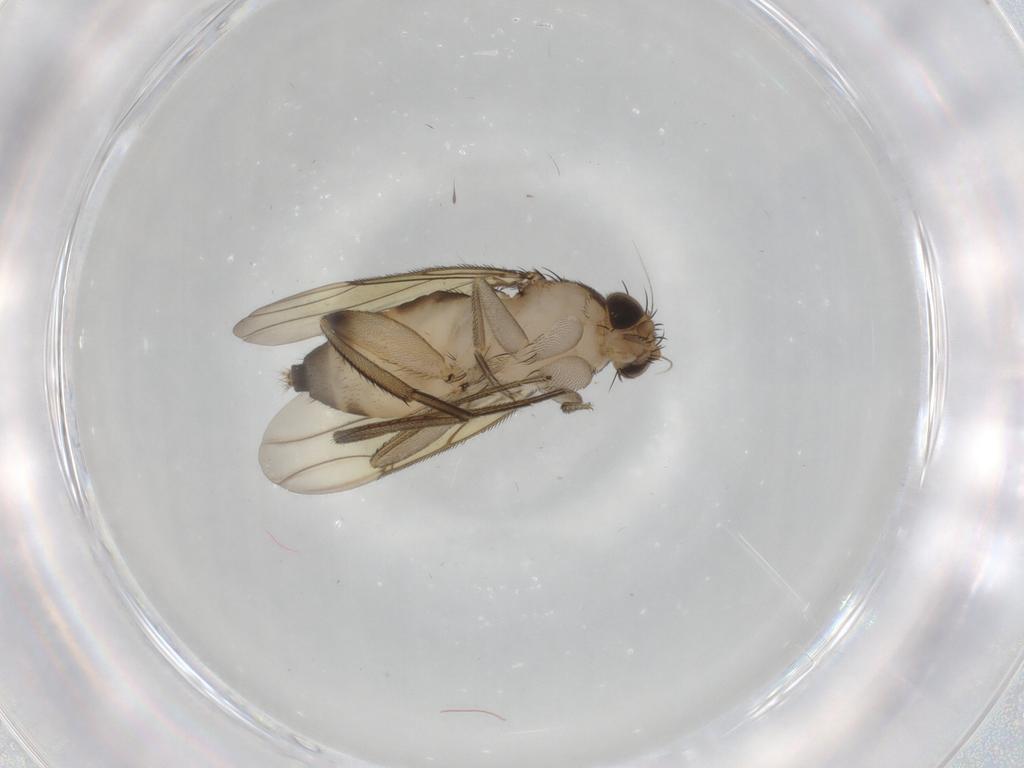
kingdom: Animalia
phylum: Arthropoda
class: Insecta
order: Diptera
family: Phoridae
